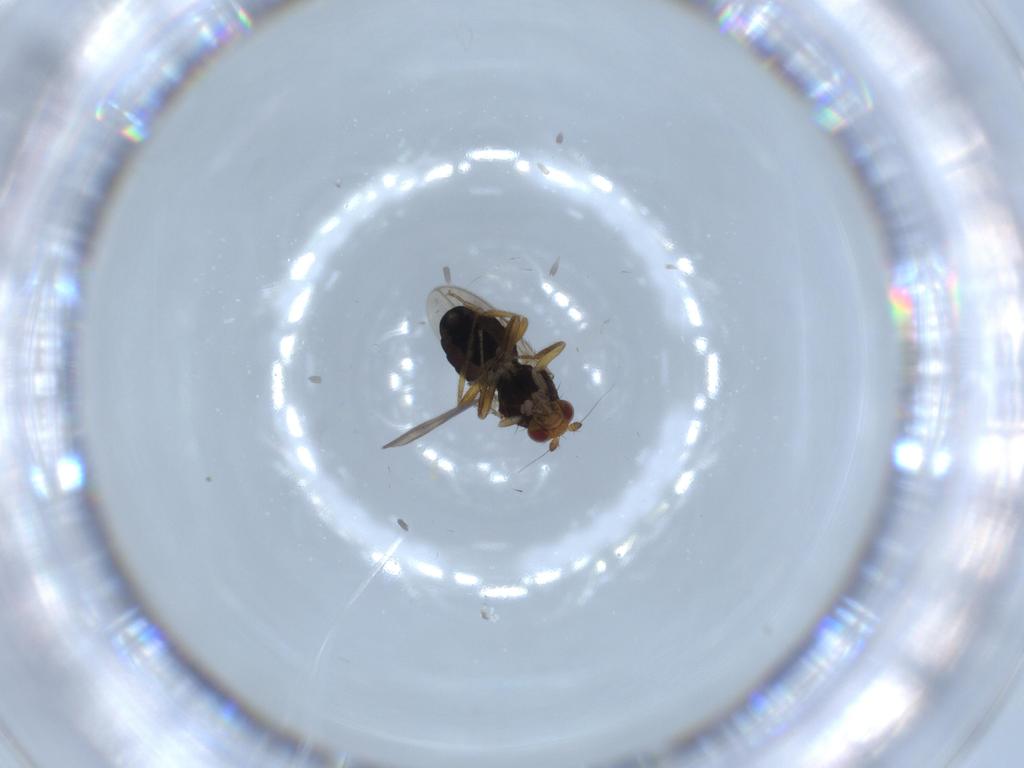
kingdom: Animalia
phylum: Arthropoda
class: Insecta
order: Diptera
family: Sphaeroceridae
